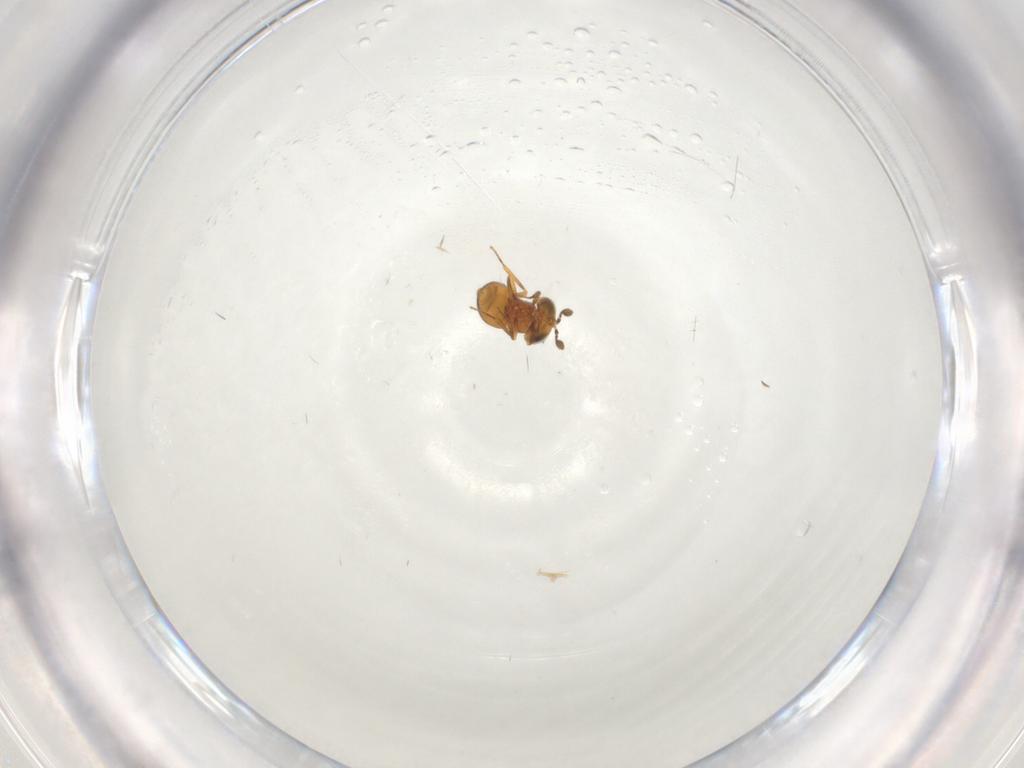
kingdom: Animalia
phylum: Arthropoda
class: Insecta
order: Hymenoptera
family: Scelionidae
